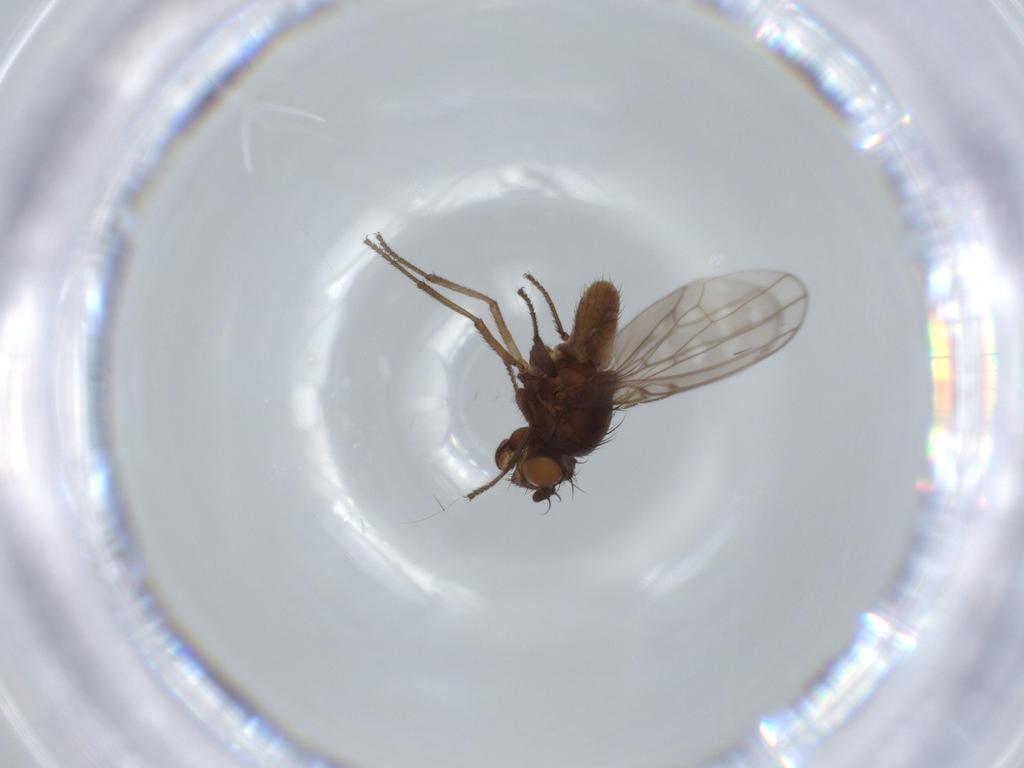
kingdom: Animalia
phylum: Arthropoda
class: Insecta
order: Diptera
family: Ephydridae
